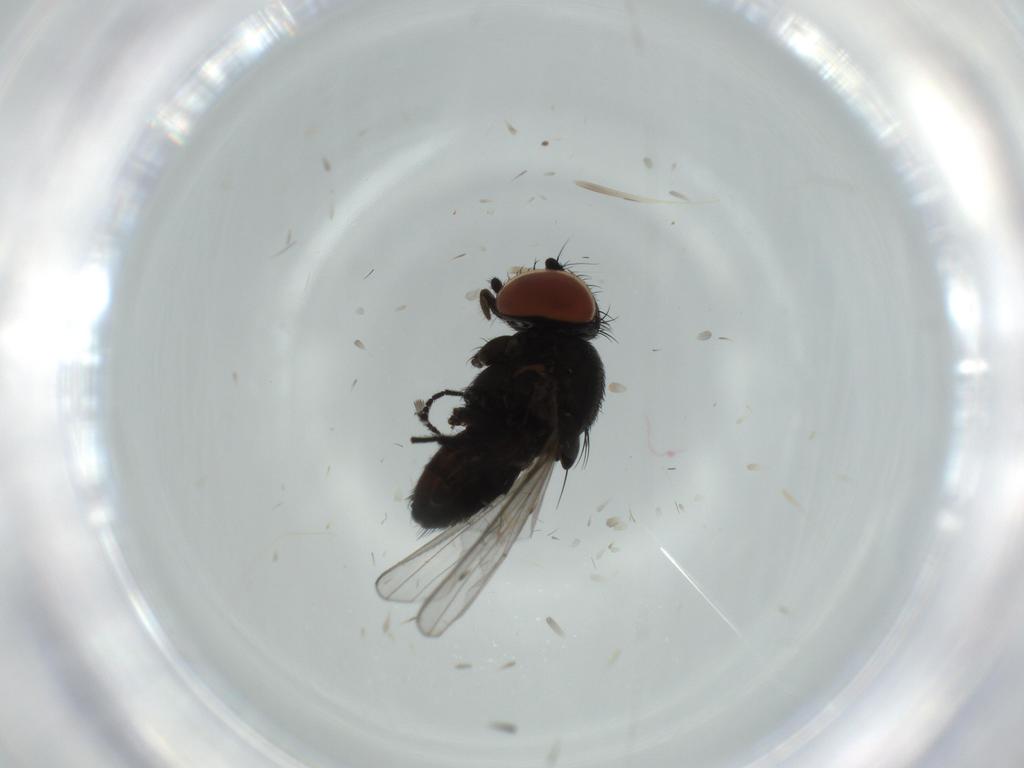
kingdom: Animalia
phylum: Arthropoda
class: Insecta
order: Diptera
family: Milichiidae
